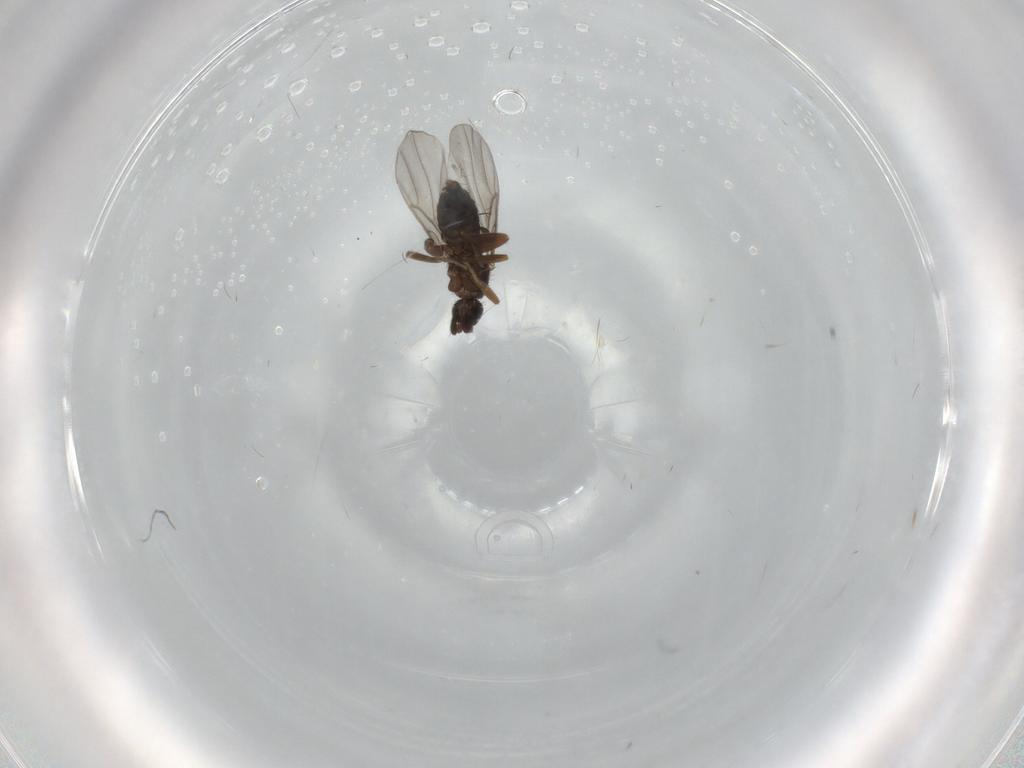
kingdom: Animalia
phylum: Arthropoda
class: Insecta
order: Diptera
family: Phoridae
